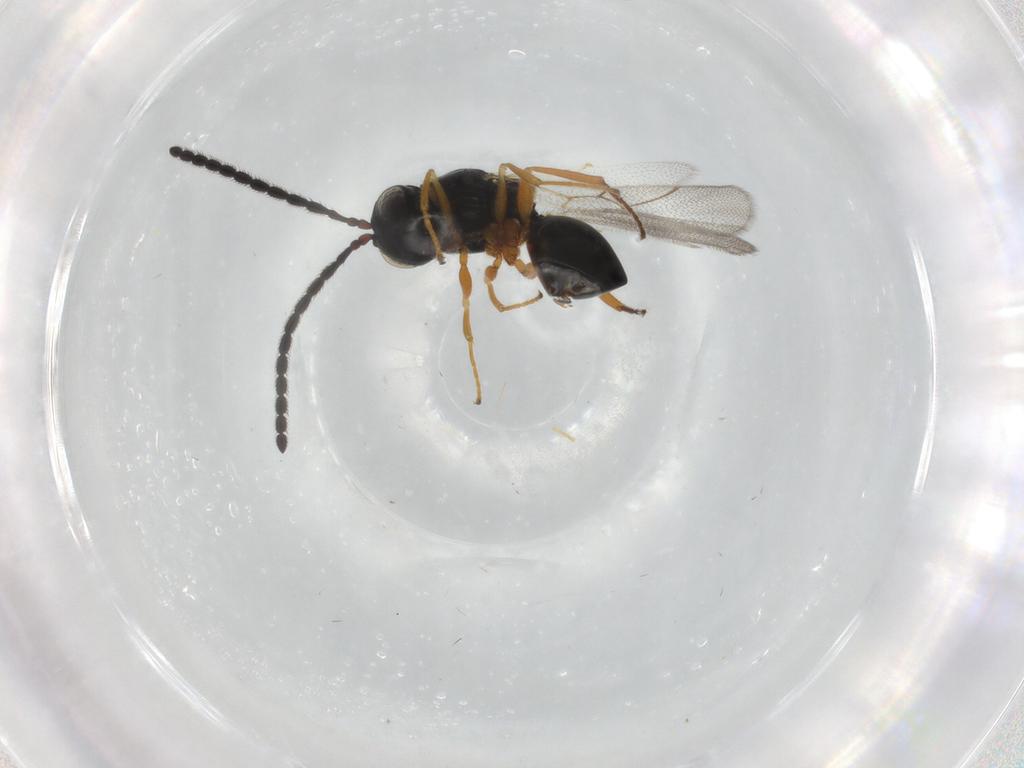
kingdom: Animalia
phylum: Arthropoda
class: Insecta
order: Hymenoptera
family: Figitidae
